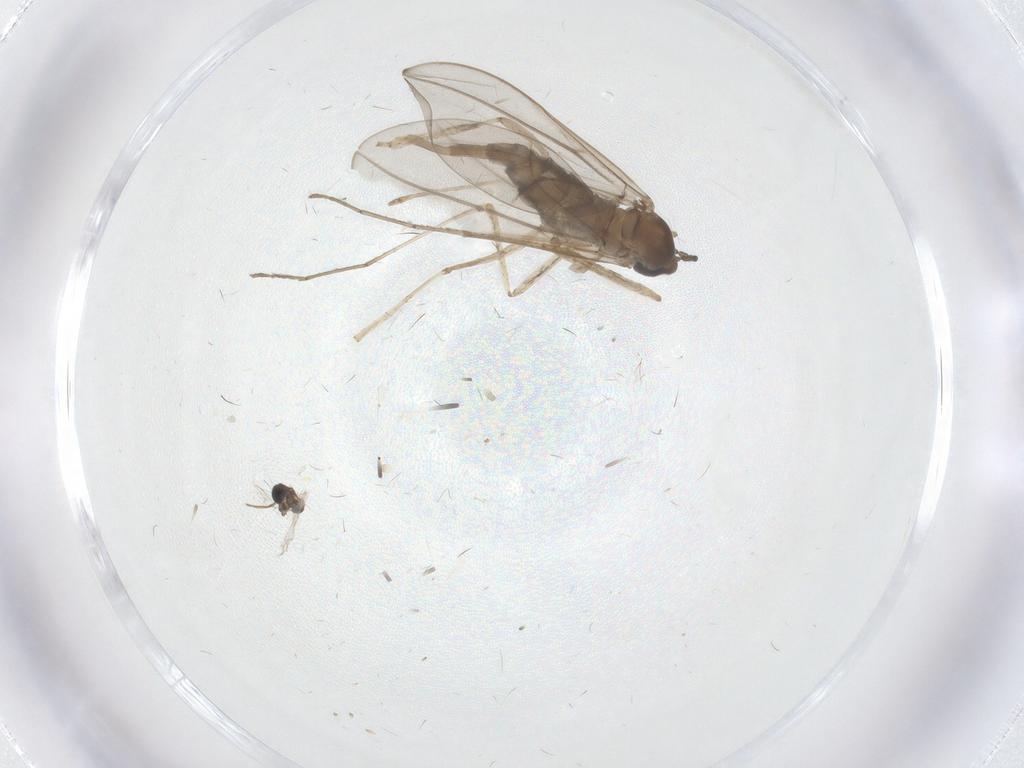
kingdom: Animalia
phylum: Arthropoda
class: Insecta
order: Diptera
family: Cecidomyiidae
